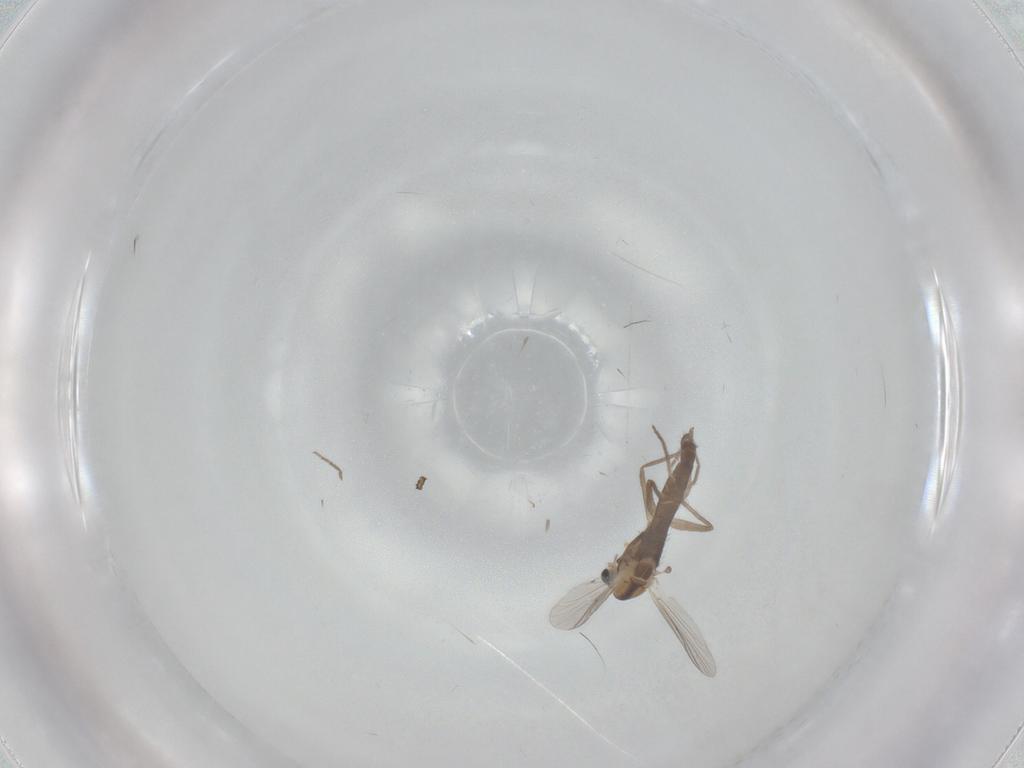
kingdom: Animalia
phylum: Arthropoda
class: Insecta
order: Diptera
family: Chironomidae
